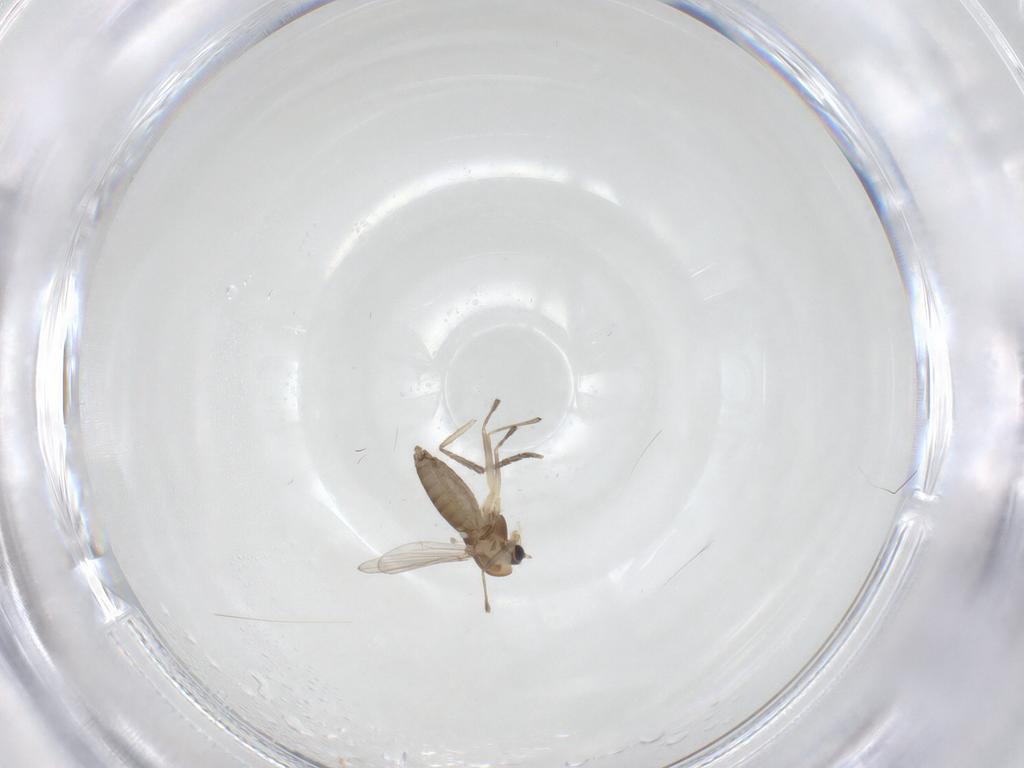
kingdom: Animalia
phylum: Arthropoda
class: Insecta
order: Diptera
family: Chironomidae
